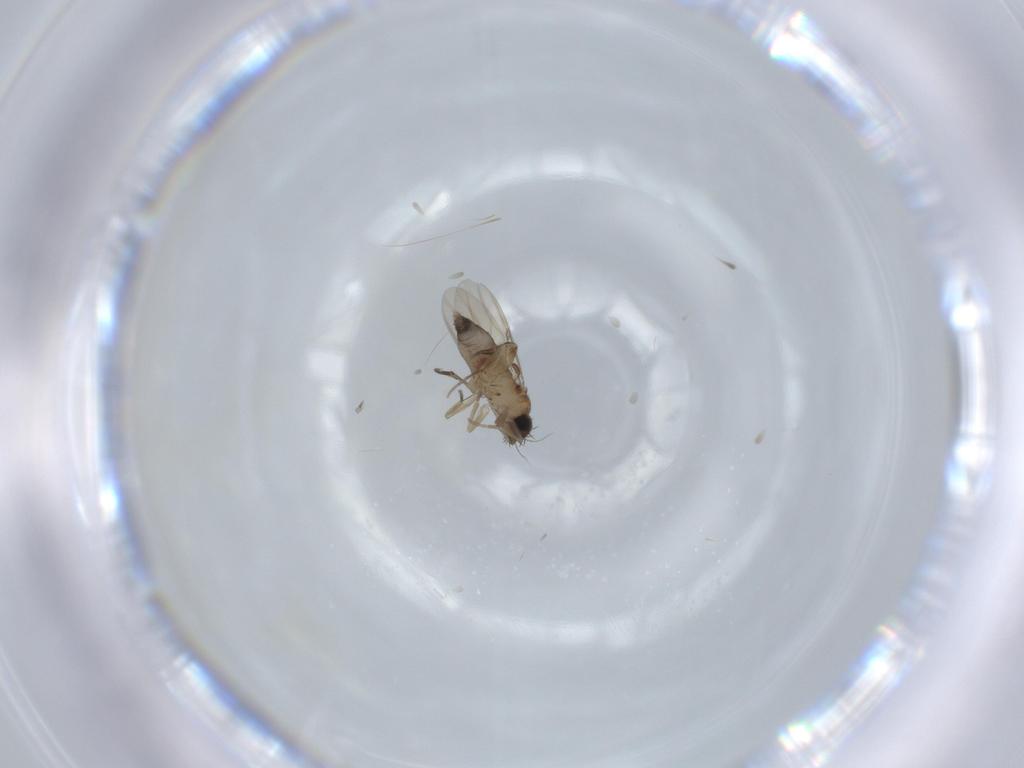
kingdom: Animalia
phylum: Arthropoda
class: Insecta
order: Diptera
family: Phoridae
